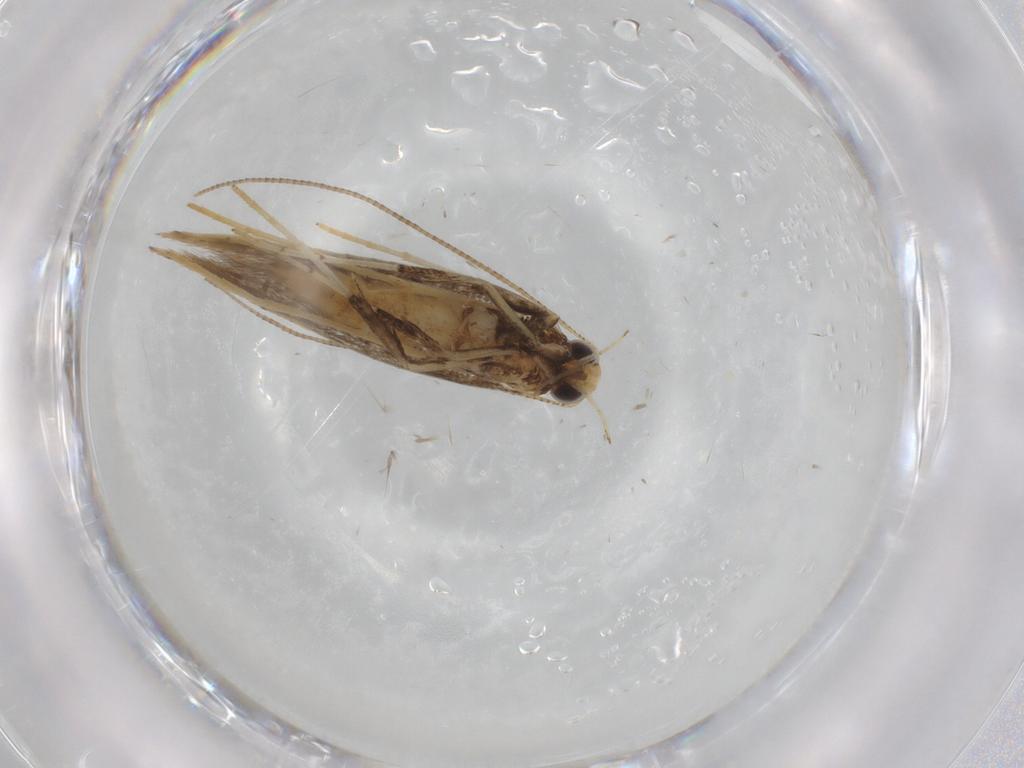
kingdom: Animalia
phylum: Arthropoda
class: Insecta
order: Lepidoptera
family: Gracillariidae
